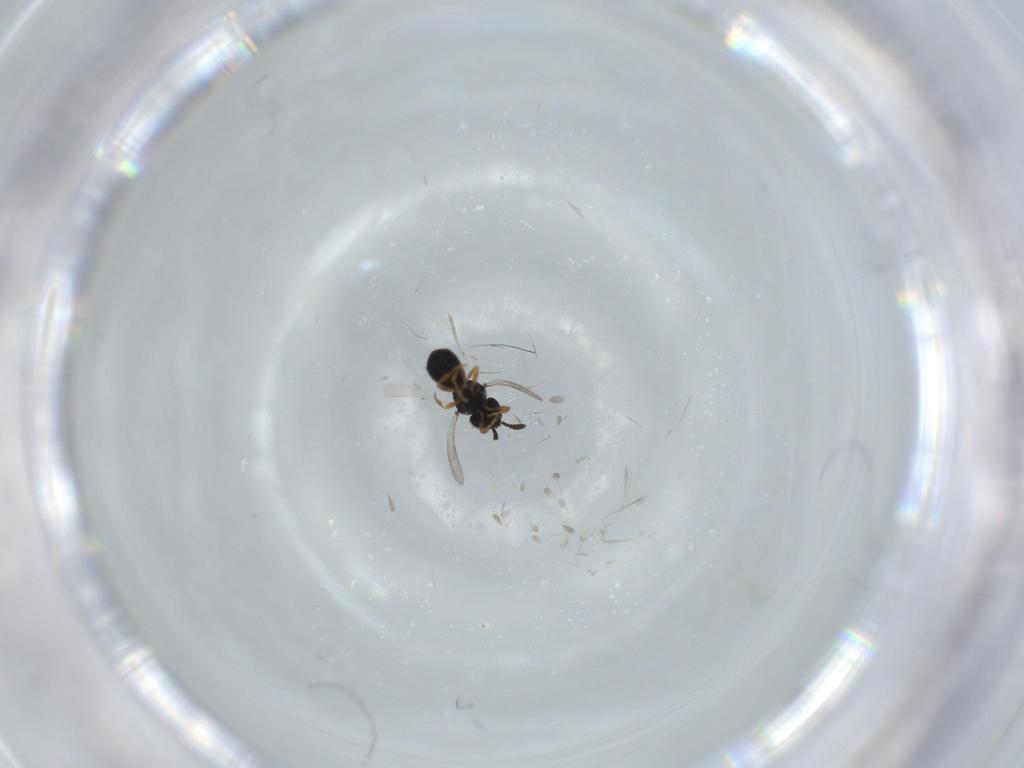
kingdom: Animalia
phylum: Arthropoda
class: Insecta
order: Hymenoptera
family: Scelionidae
